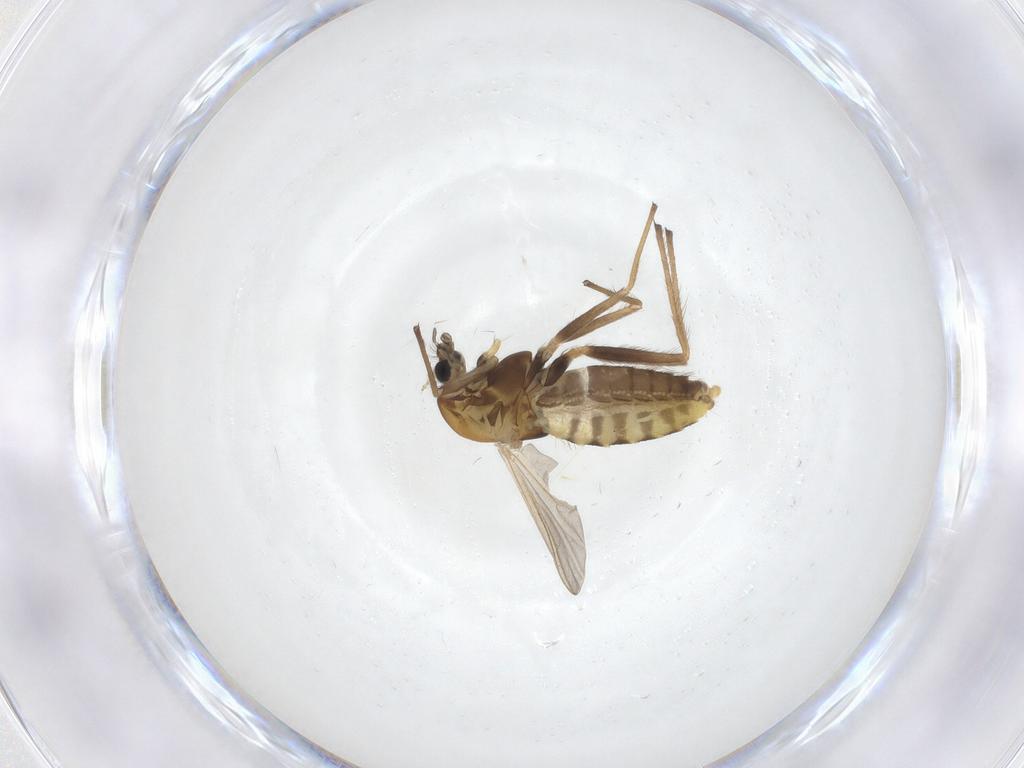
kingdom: Animalia
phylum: Arthropoda
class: Insecta
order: Diptera
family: Chironomidae
